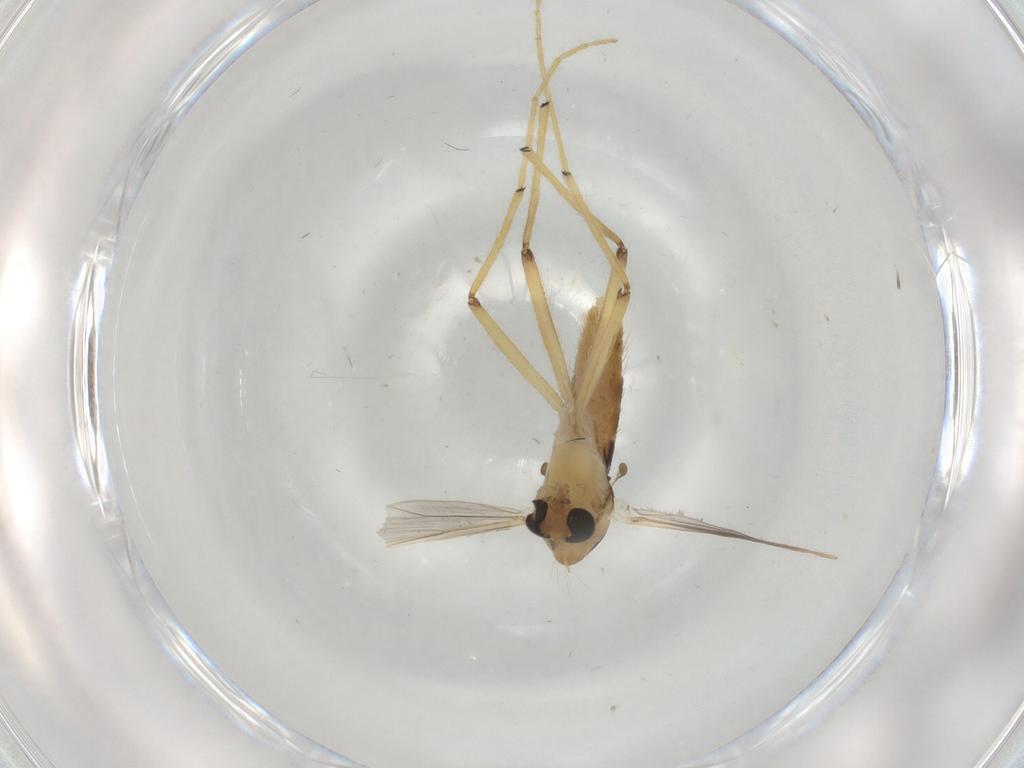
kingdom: Animalia
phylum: Arthropoda
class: Insecta
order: Diptera
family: Chironomidae
